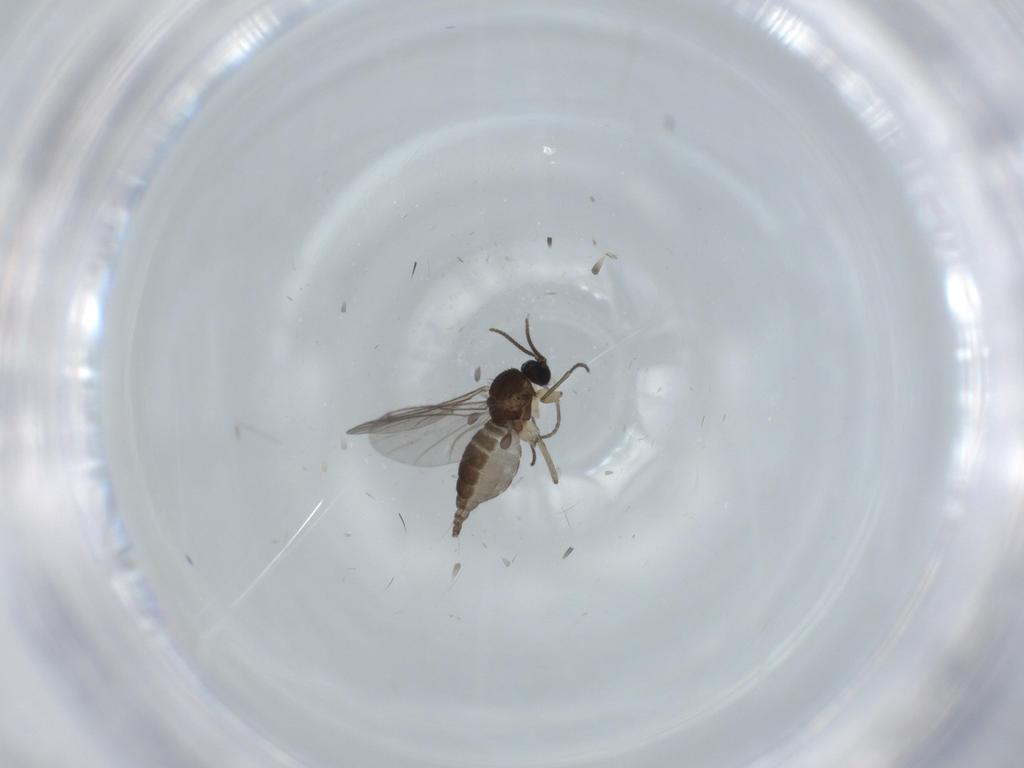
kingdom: Animalia
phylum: Arthropoda
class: Insecta
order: Diptera
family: Sciaridae
